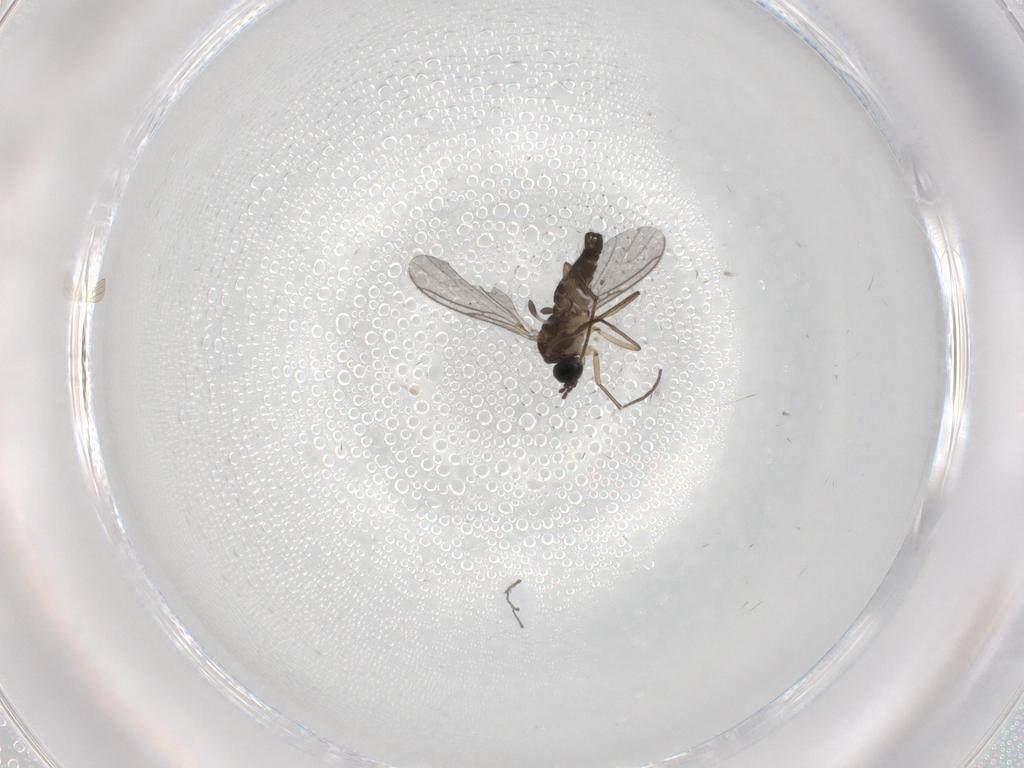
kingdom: Animalia
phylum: Arthropoda
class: Insecta
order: Diptera
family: Sciaridae
